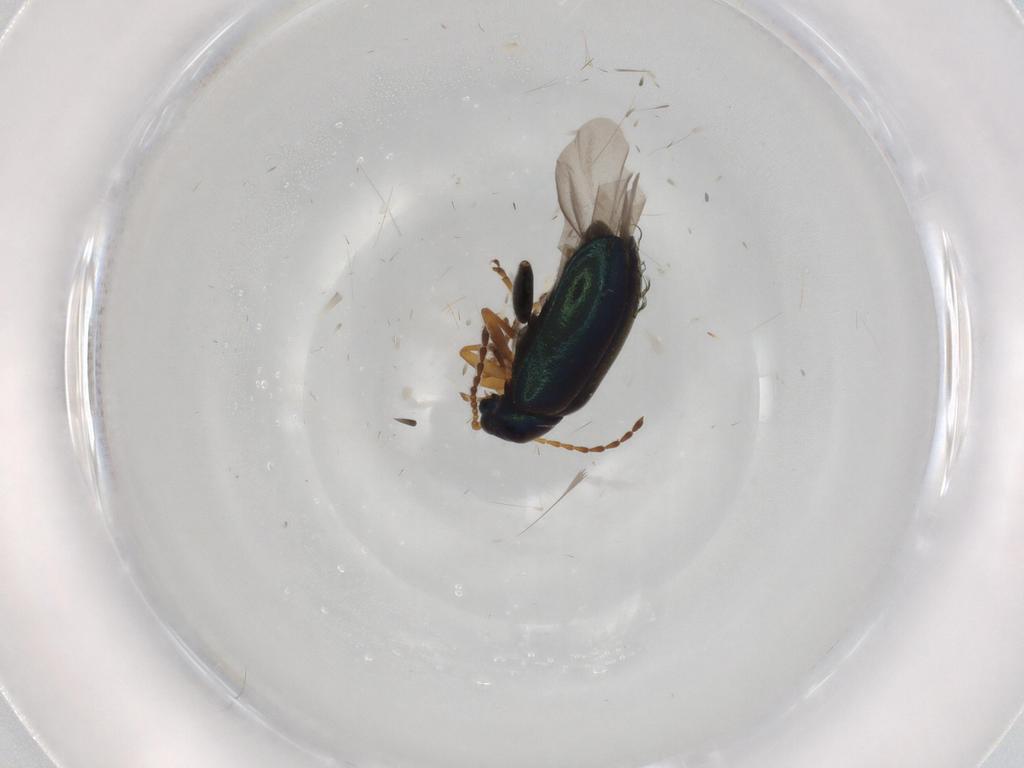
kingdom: Animalia
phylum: Arthropoda
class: Insecta
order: Coleoptera
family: Chrysomelidae
